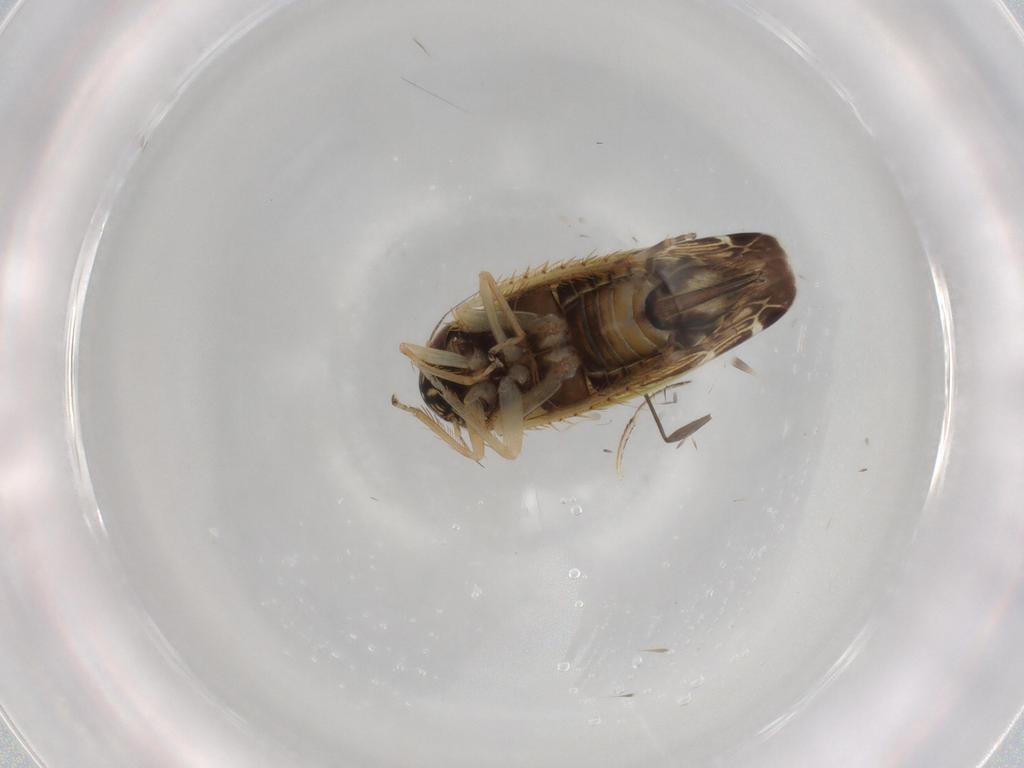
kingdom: Animalia
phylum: Arthropoda
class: Insecta
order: Hemiptera
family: Cicadellidae
